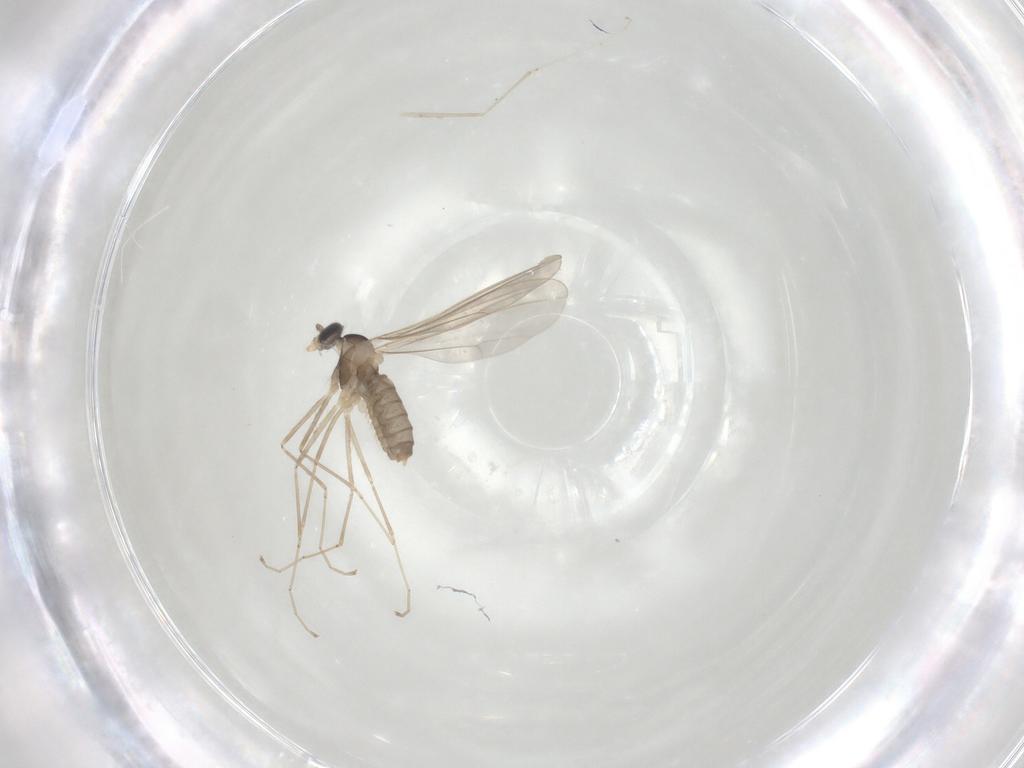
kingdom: Animalia
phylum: Arthropoda
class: Insecta
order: Diptera
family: Cecidomyiidae
